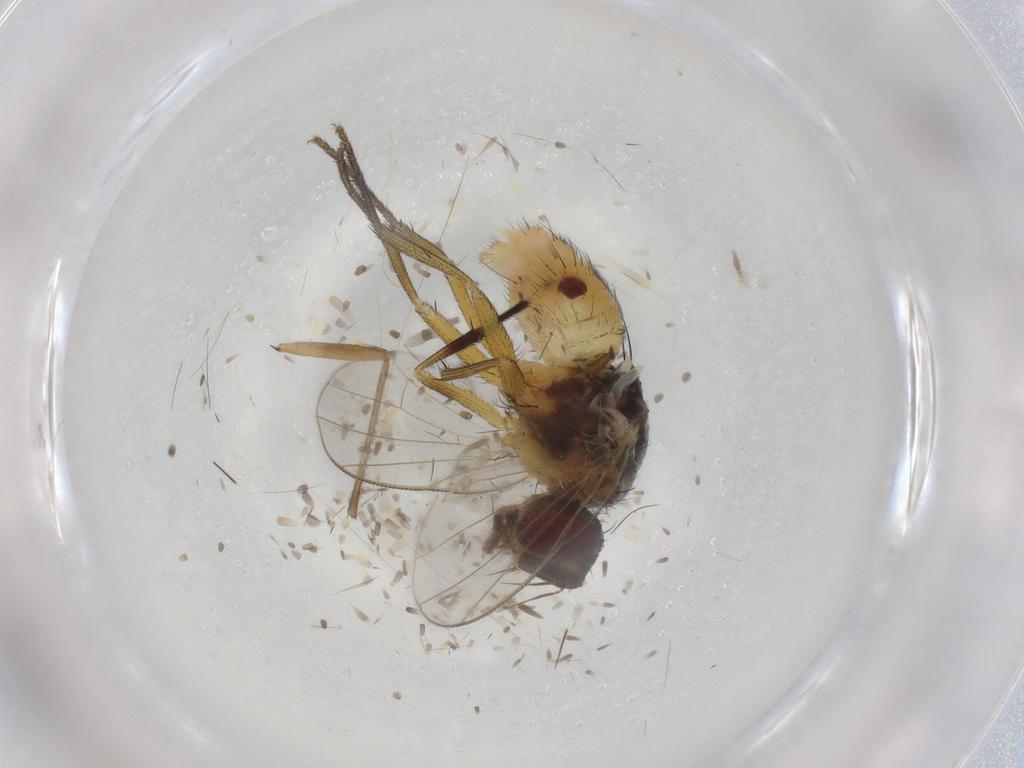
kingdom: Animalia
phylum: Arthropoda
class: Insecta
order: Diptera
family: Muscidae
